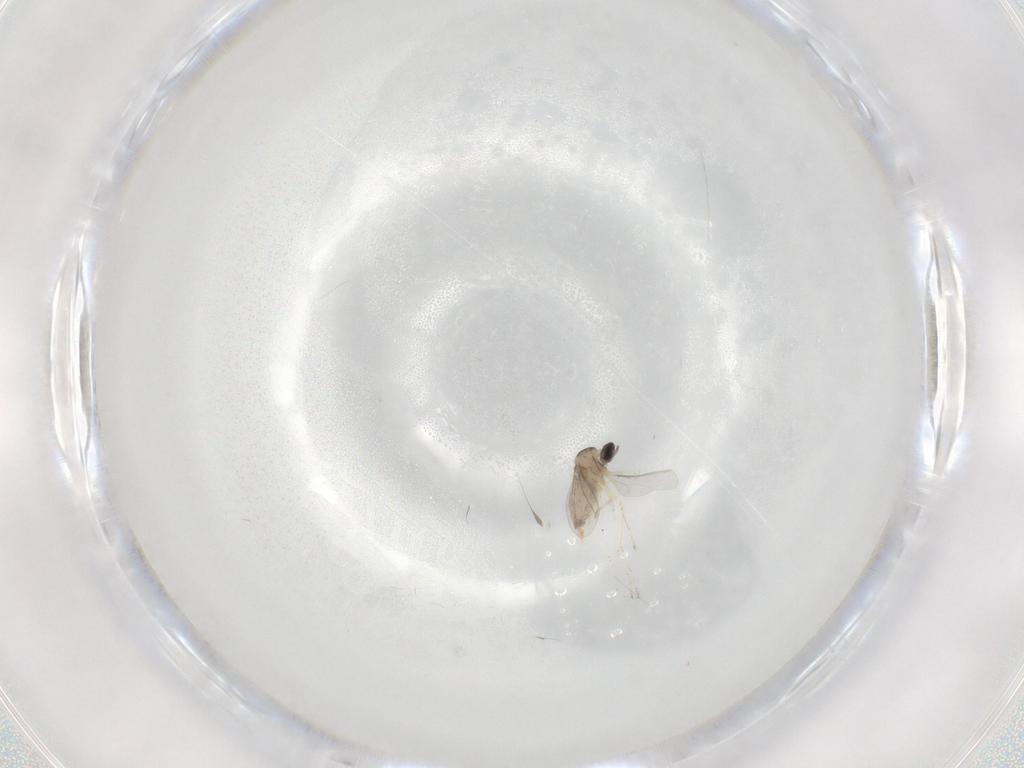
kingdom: Animalia
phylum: Arthropoda
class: Insecta
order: Diptera
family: Cecidomyiidae
